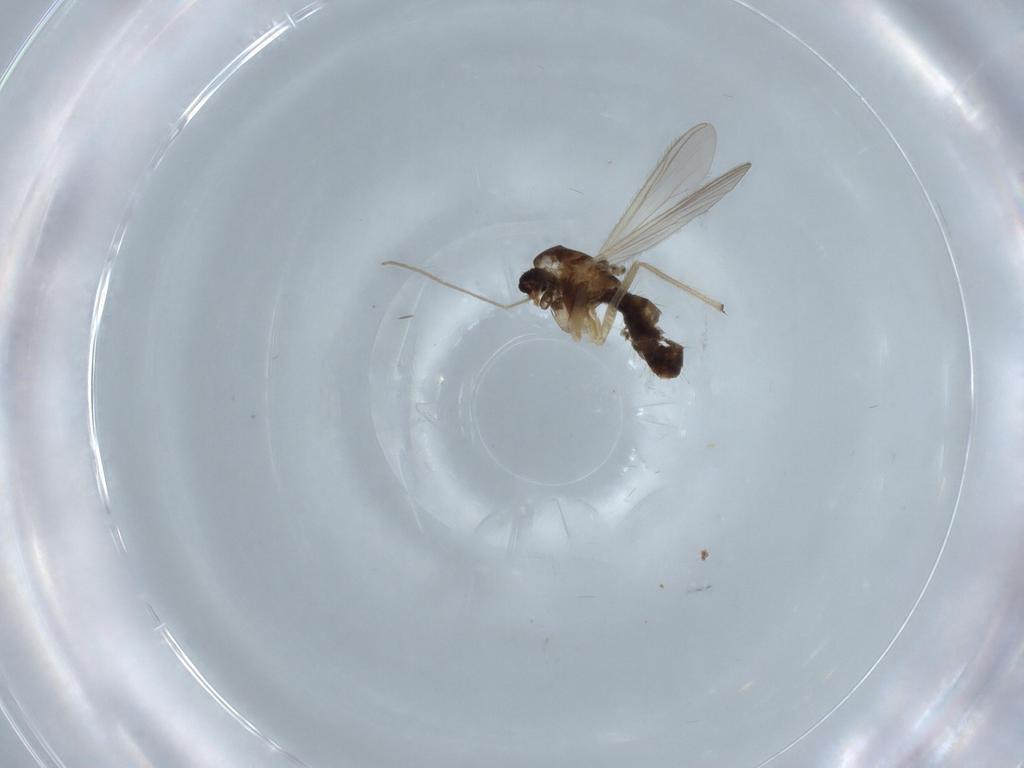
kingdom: Animalia
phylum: Arthropoda
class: Insecta
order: Diptera
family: Chironomidae
